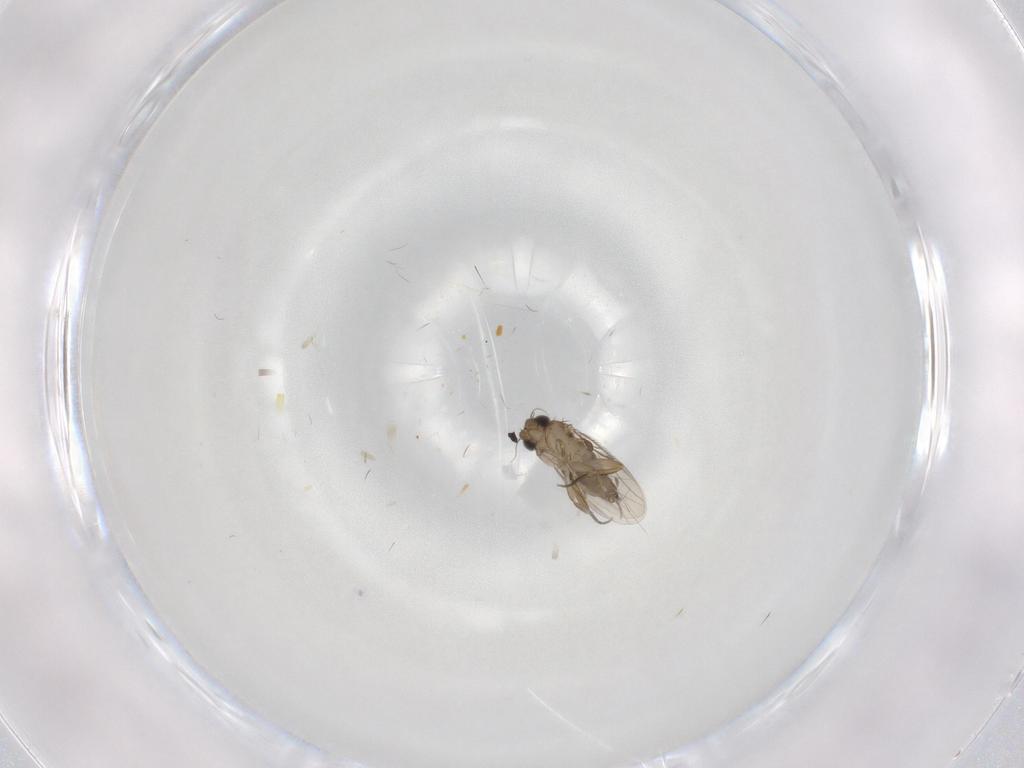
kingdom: Animalia
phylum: Arthropoda
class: Insecta
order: Diptera
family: Phoridae
